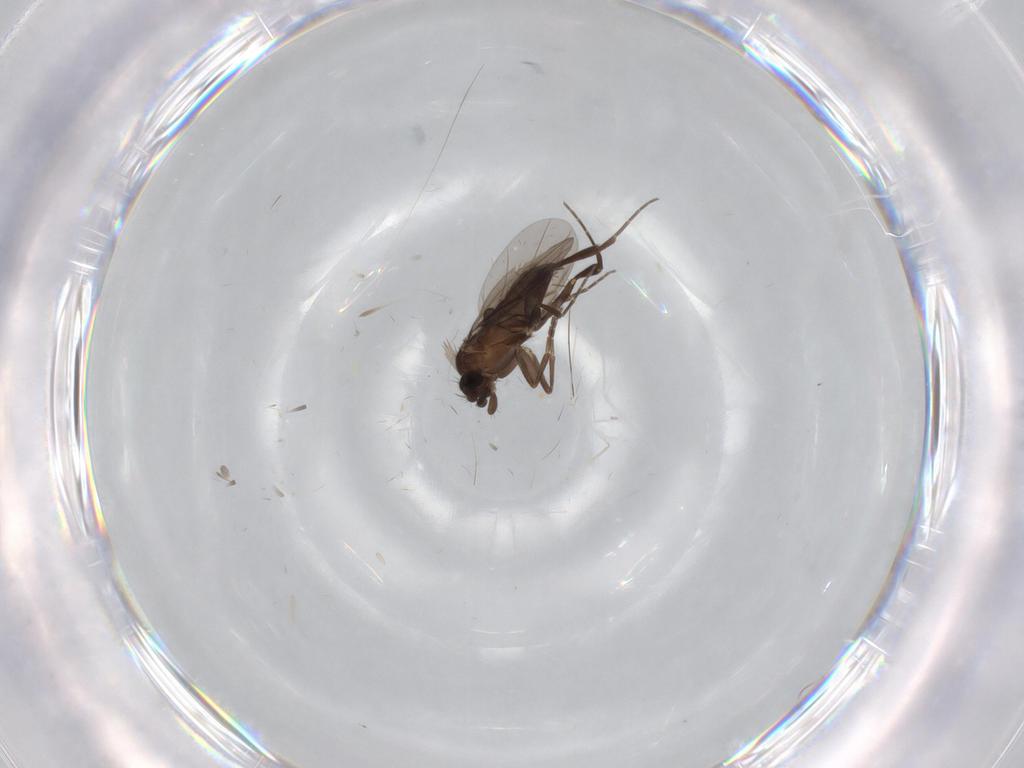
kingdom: Animalia
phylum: Arthropoda
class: Insecta
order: Diptera
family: Phoridae
